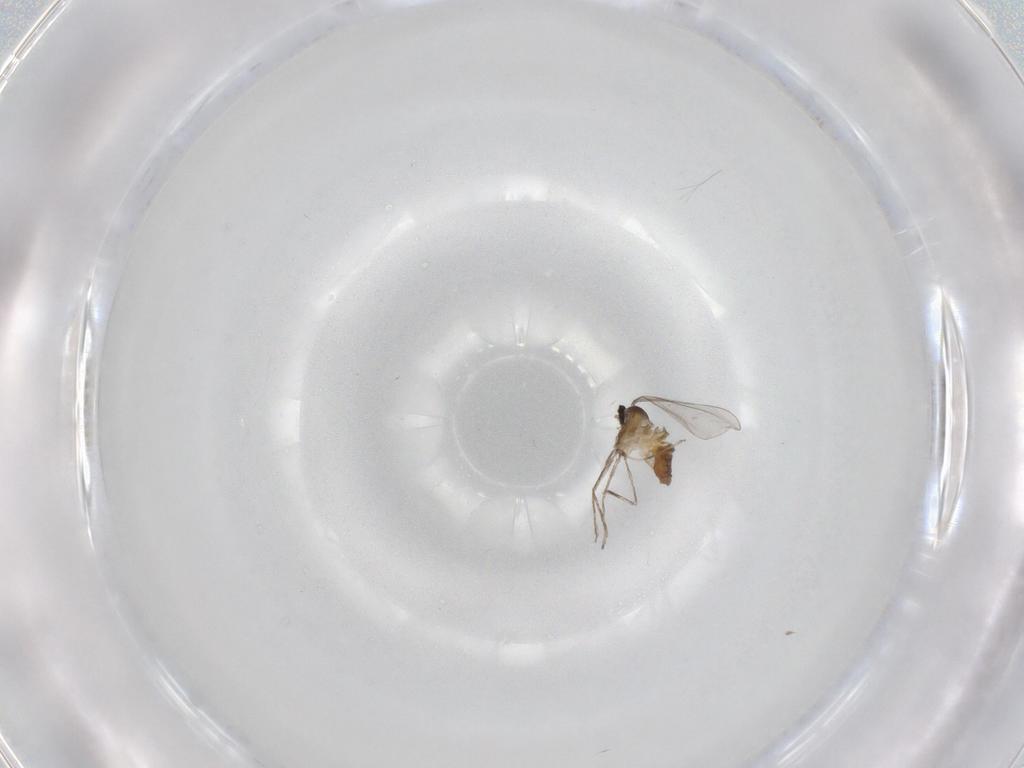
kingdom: Animalia
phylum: Arthropoda
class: Insecta
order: Diptera
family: Cecidomyiidae
